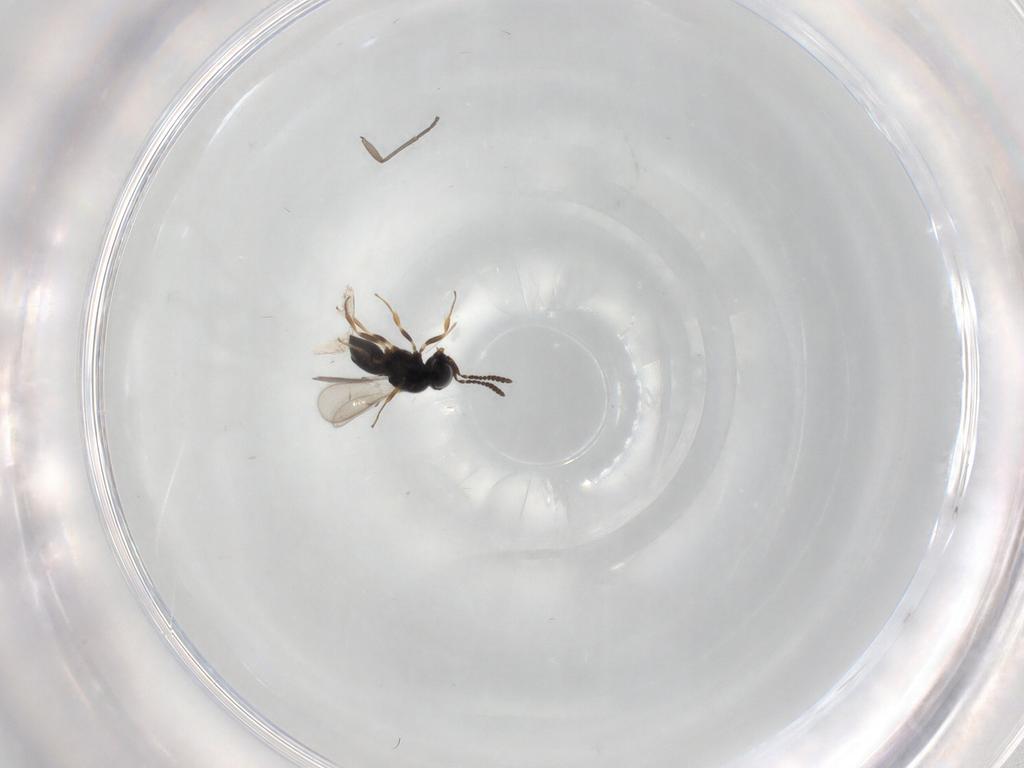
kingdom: Animalia
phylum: Arthropoda
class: Insecta
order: Hymenoptera
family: Scelionidae
